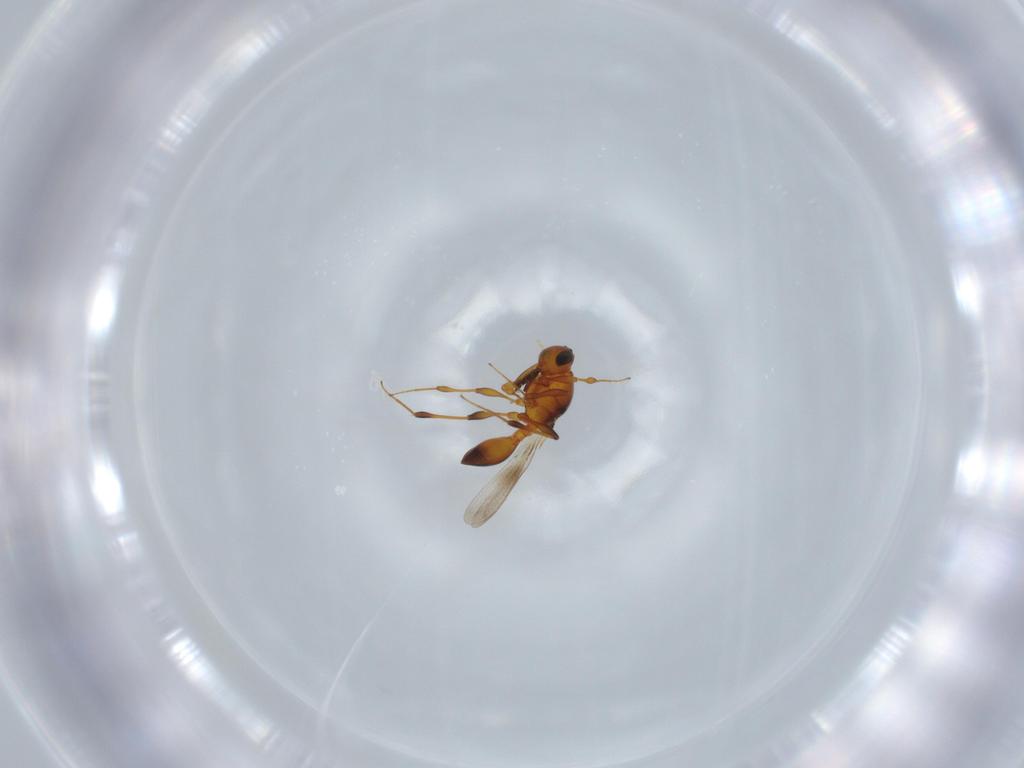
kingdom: Animalia
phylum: Arthropoda
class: Insecta
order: Hymenoptera
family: Platygastridae
